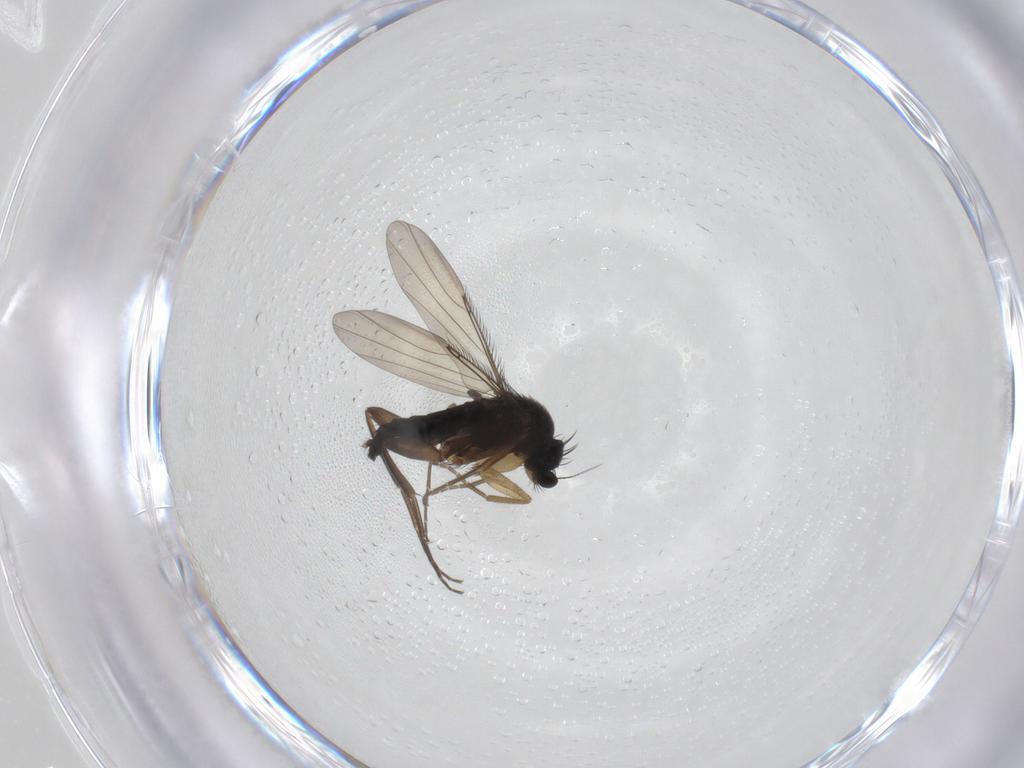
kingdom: Animalia
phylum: Arthropoda
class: Insecta
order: Diptera
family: Phoridae
